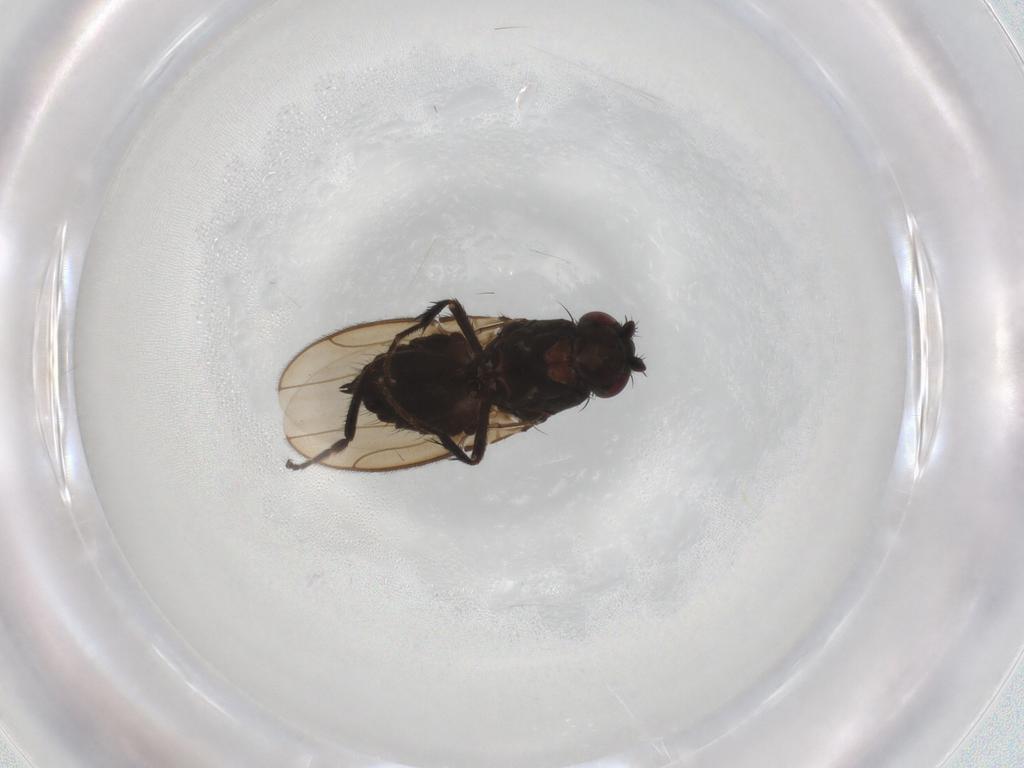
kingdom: Animalia
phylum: Arthropoda
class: Insecta
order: Diptera
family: Sphaeroceridae
